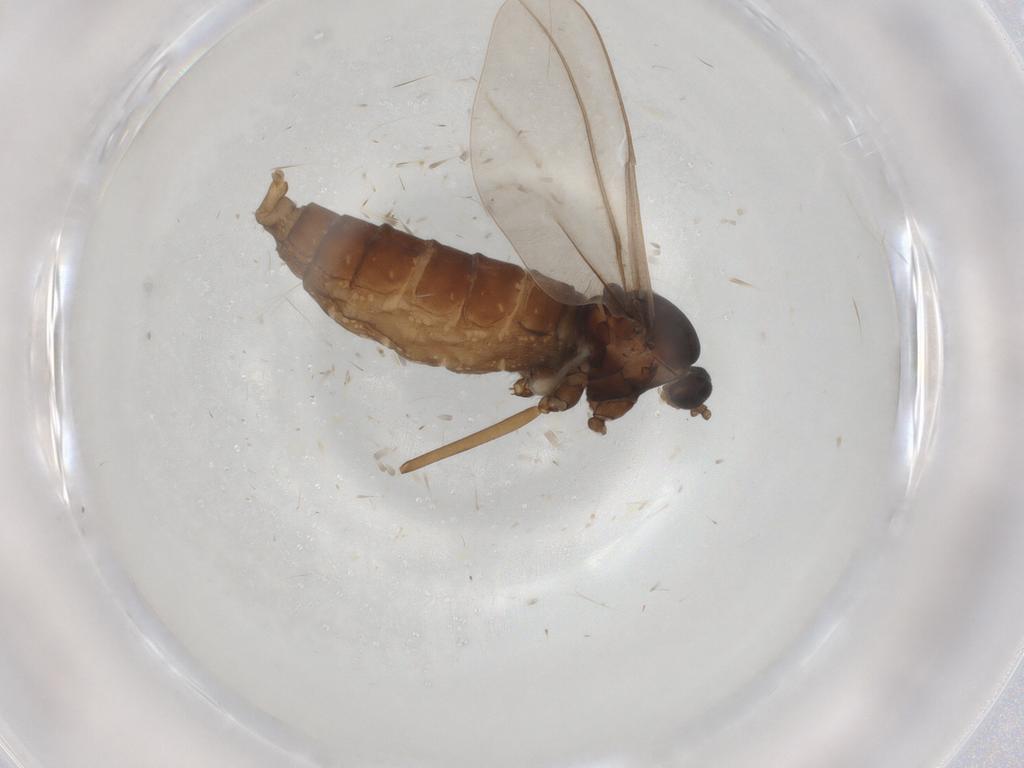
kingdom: Animalia
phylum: Arthropoda
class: Insecta
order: Diptera
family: Cecidomyiidae
